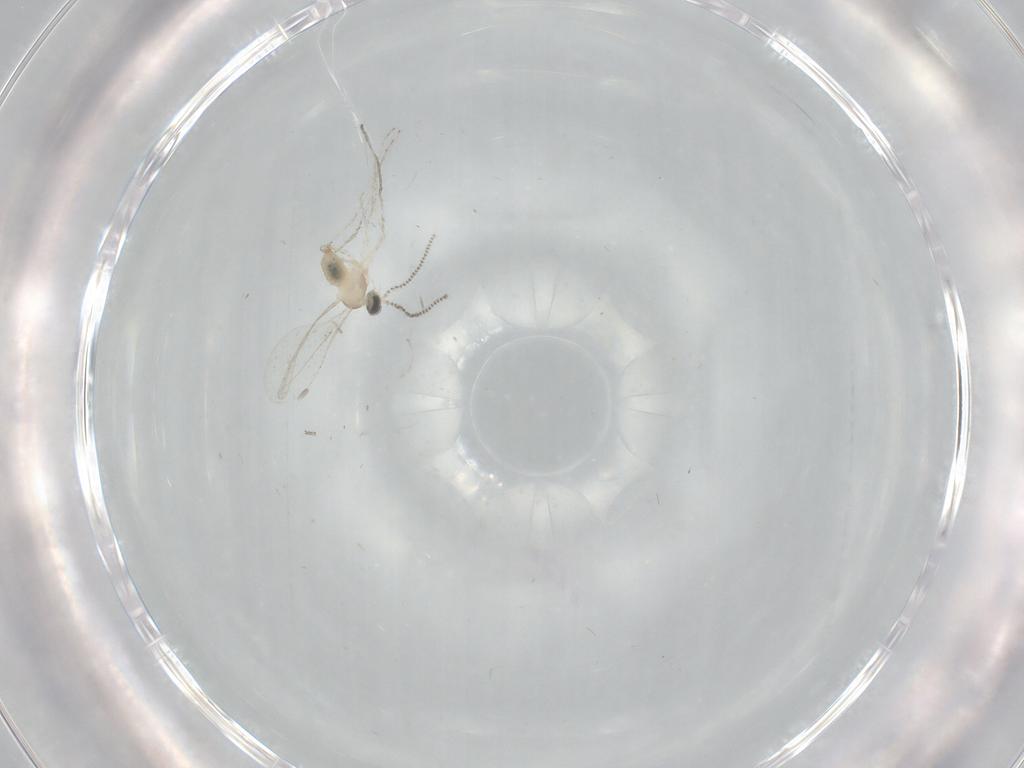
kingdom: Animalia
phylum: Arthropoda
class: Insecta
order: Diptera
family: Cecidomyiidae
